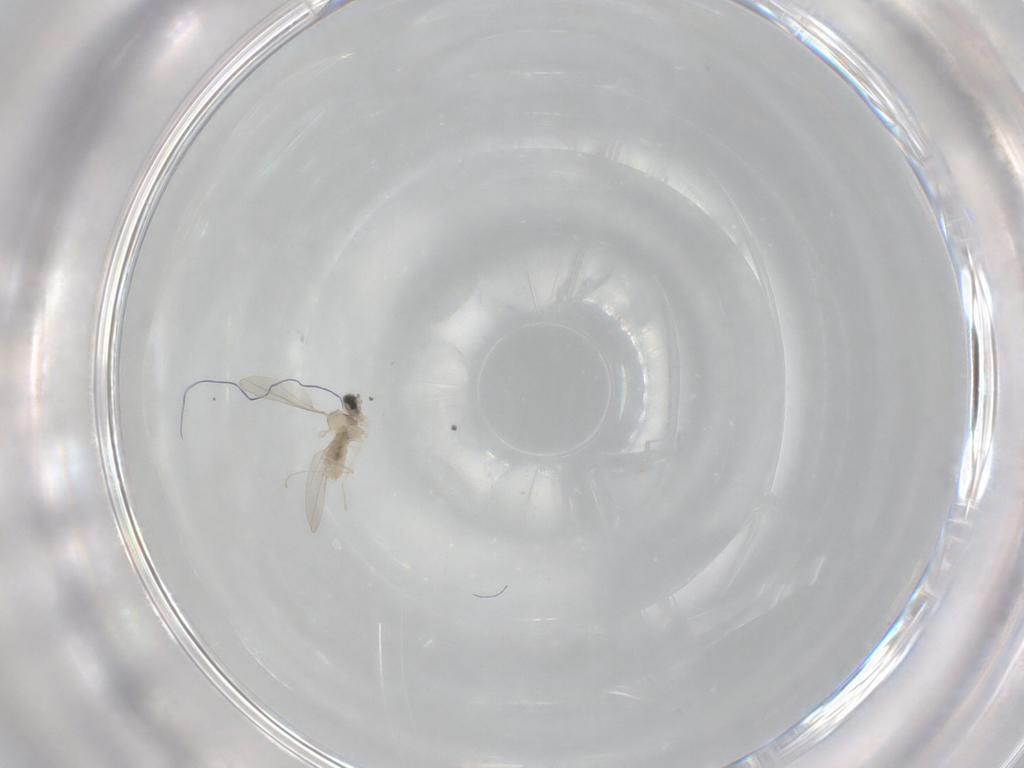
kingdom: Animalia
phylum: Arthropoda
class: Insecta
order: Diptera
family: Cecidomyiidae
